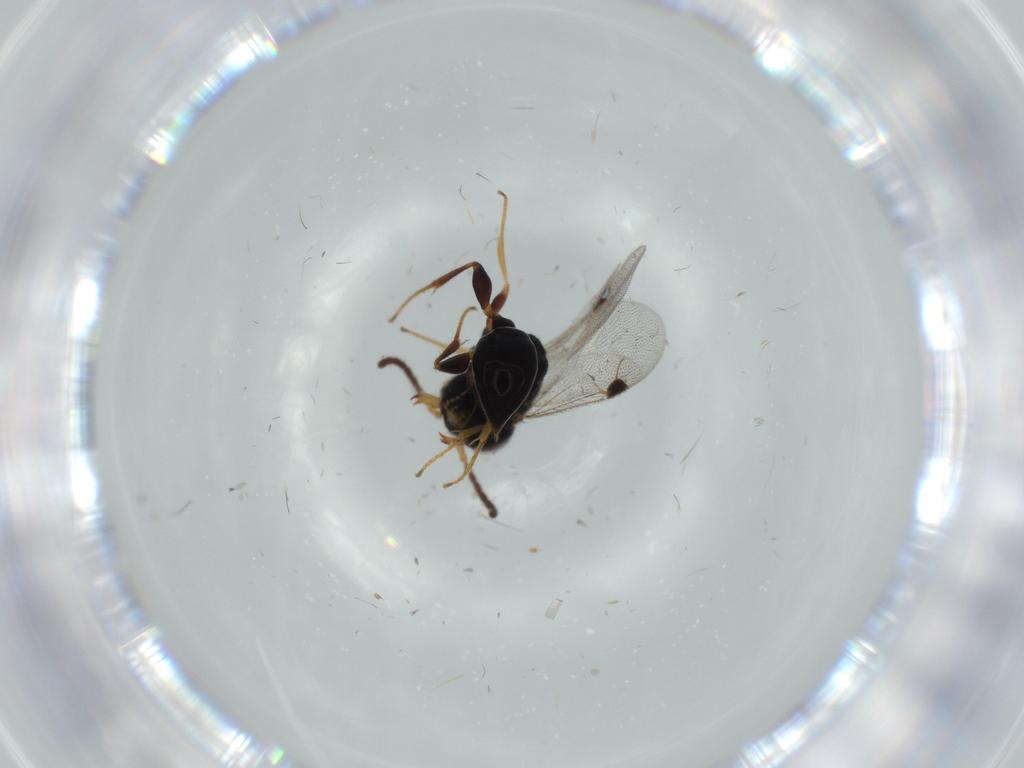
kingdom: Animalia
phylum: Arthropoda
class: Insecta
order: Hymenoptera
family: Dryinidae
